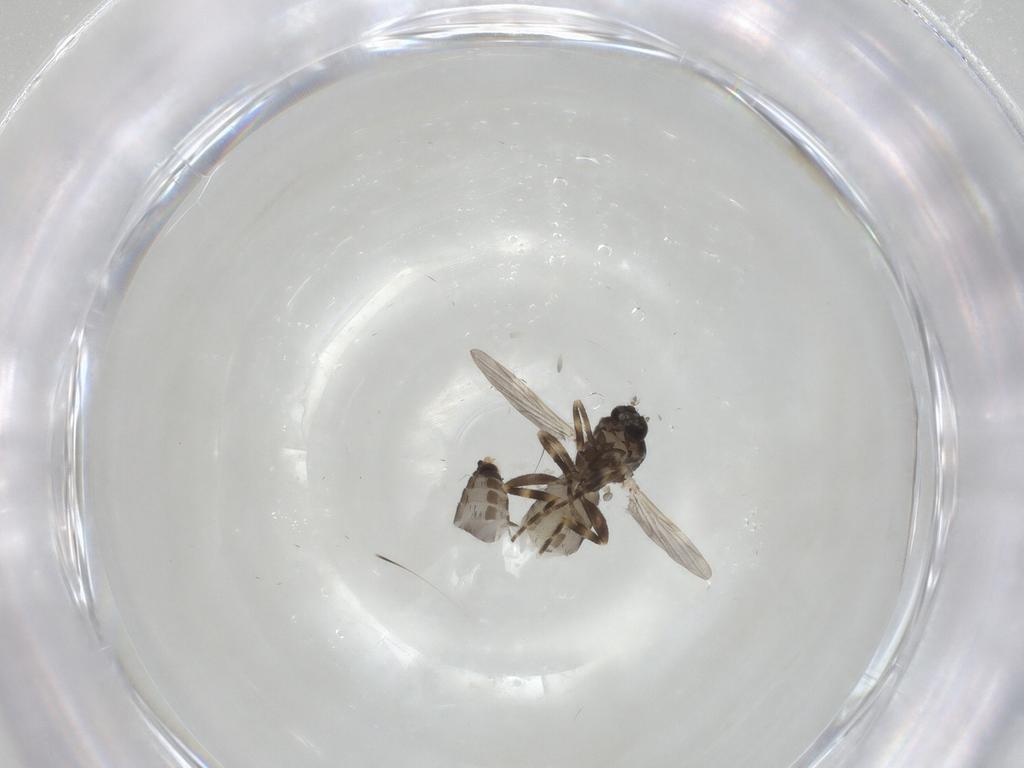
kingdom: Animalia
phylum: Arthropoda
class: Insecta
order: Diptera
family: Ceratopogonidae
